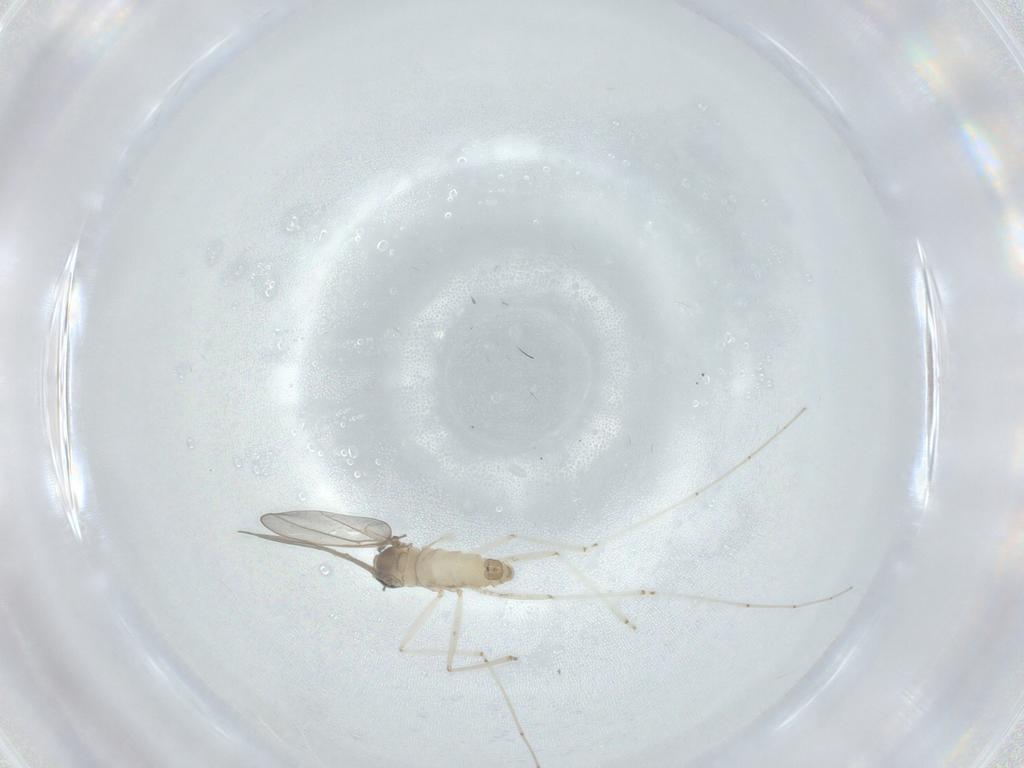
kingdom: Animalia
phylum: Arthropoda
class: Insecta
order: Diptera
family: Cecidomyiidae
